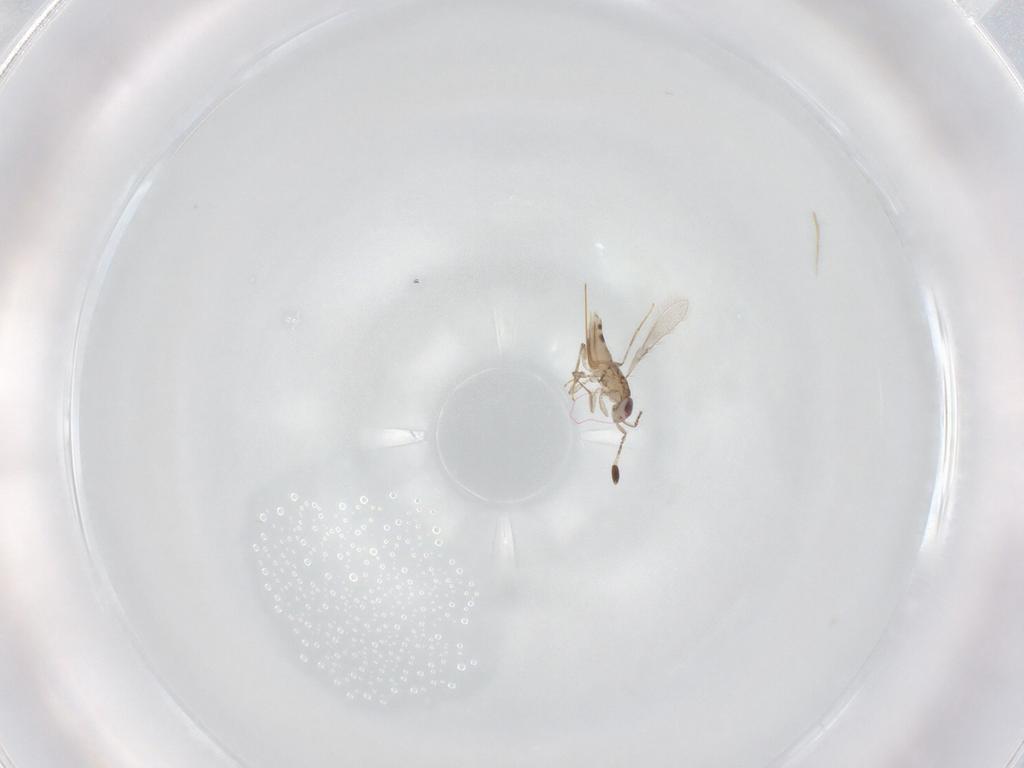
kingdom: Animalia
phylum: Arthropoda
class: Insecta
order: Hymenoptera
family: Mymaridae
